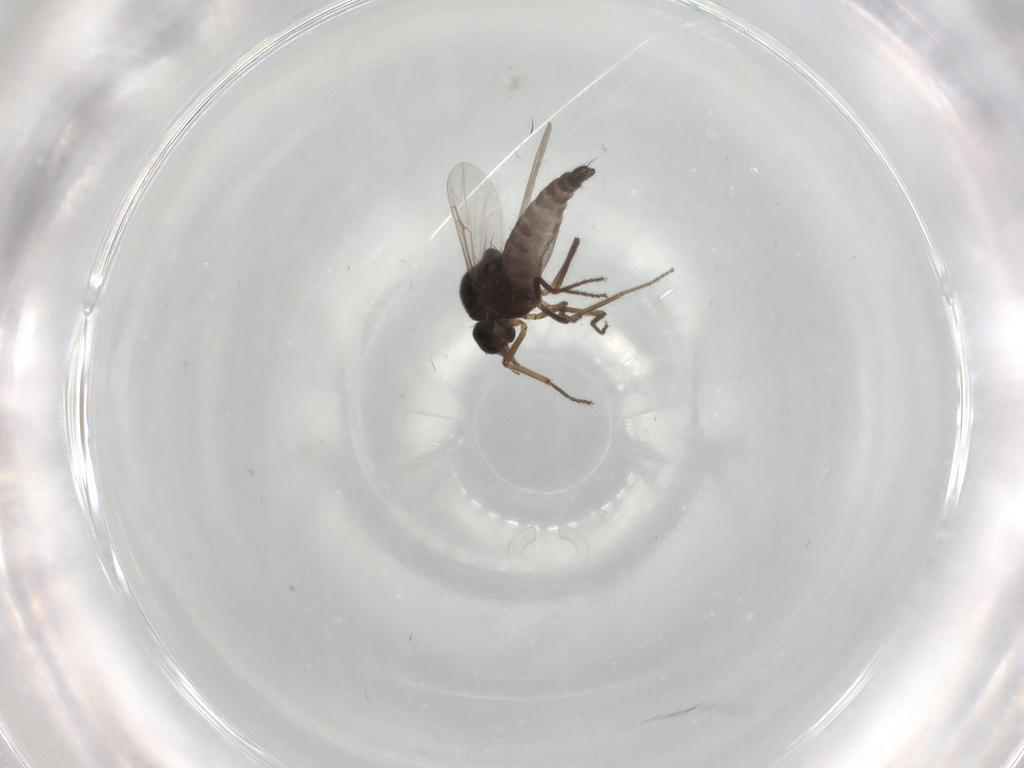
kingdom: Animalia
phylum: Arthropoda
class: Insecta
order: Diptera
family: Ceratopogonidae
